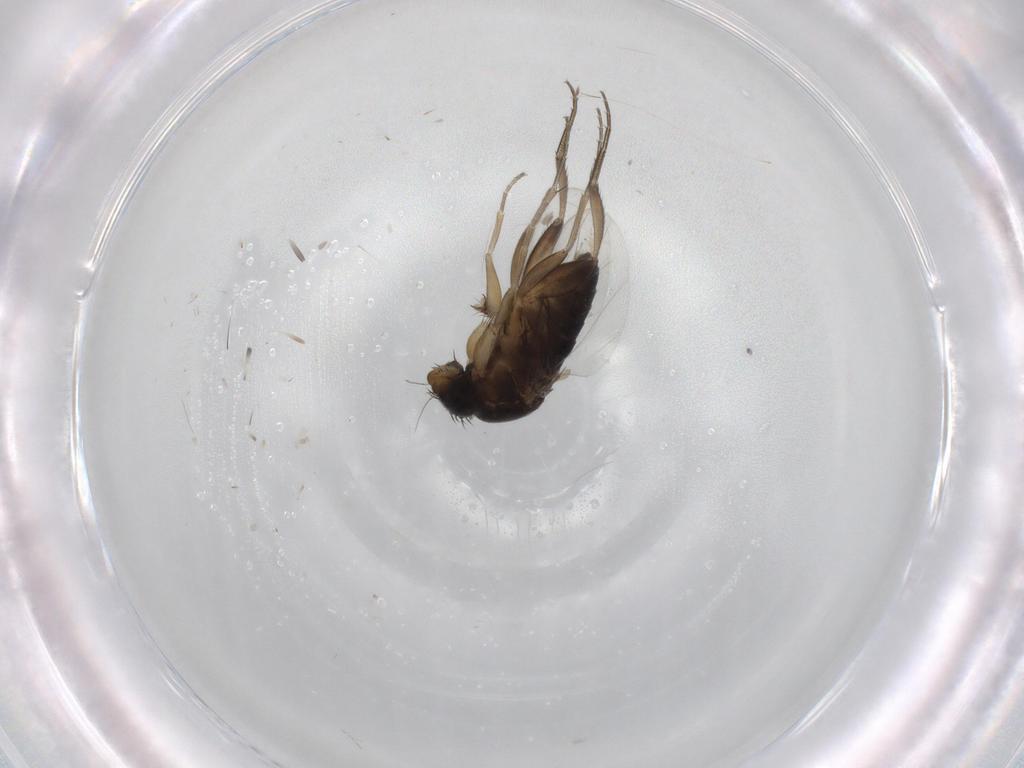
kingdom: Animalia
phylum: Arthropoda
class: Insecta
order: Diptera
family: Phoridae
